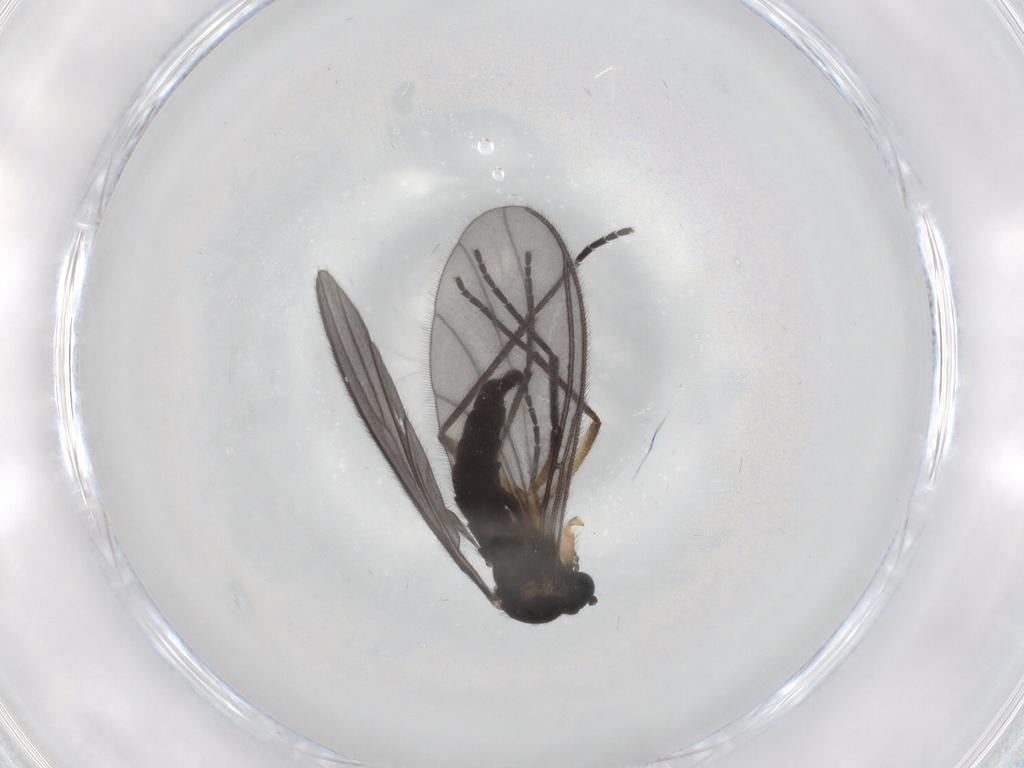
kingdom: Animalia
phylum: Arthropoda
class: Insecta
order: Diptera
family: Sciaridae
